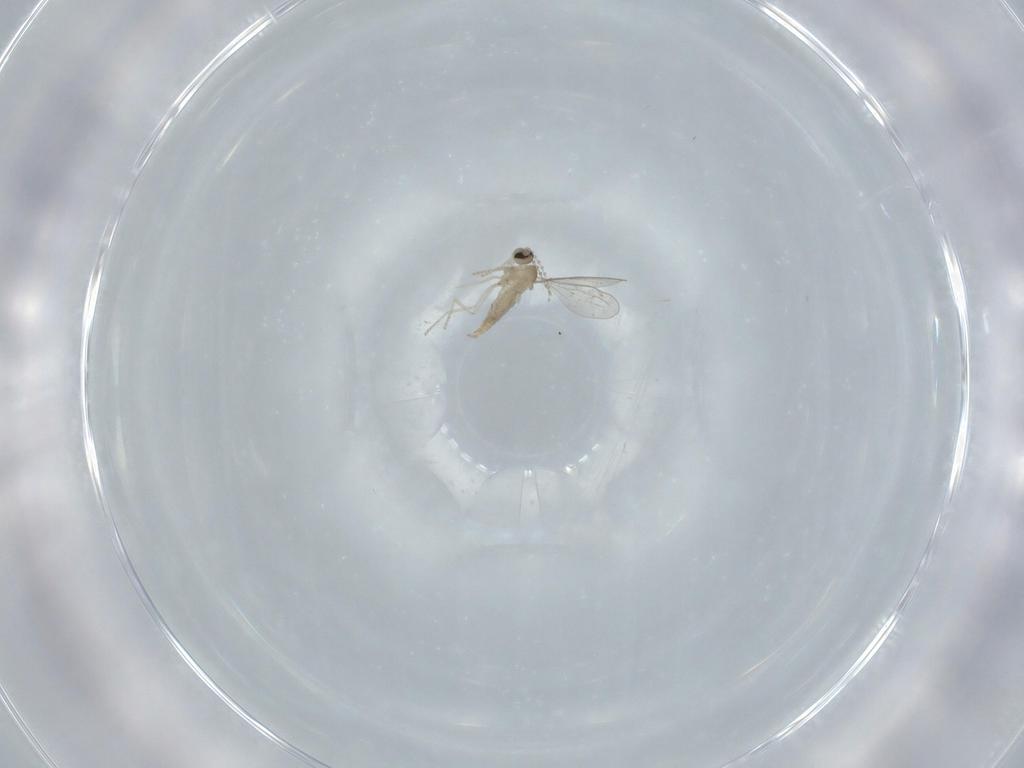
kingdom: Animalia
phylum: Arthropoda
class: Insecta
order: Diptera
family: Cecidomyiidae
